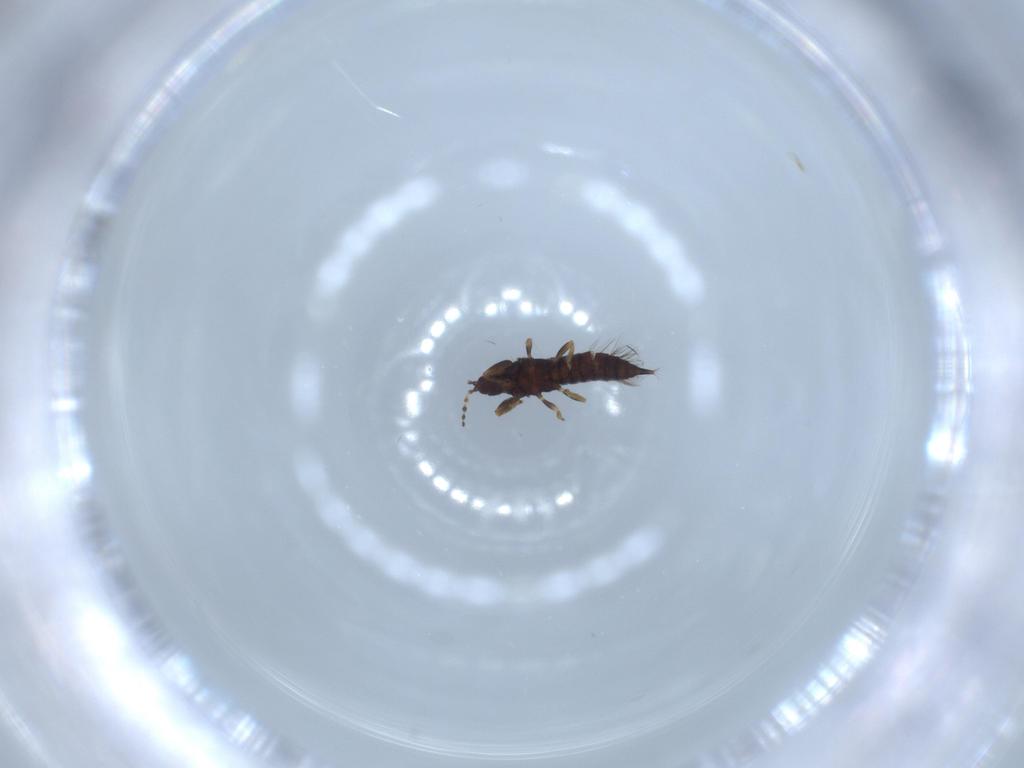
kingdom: Animalia
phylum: Arthropoda
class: Insecta
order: Thysanoptera
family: Phlaeothripidae
